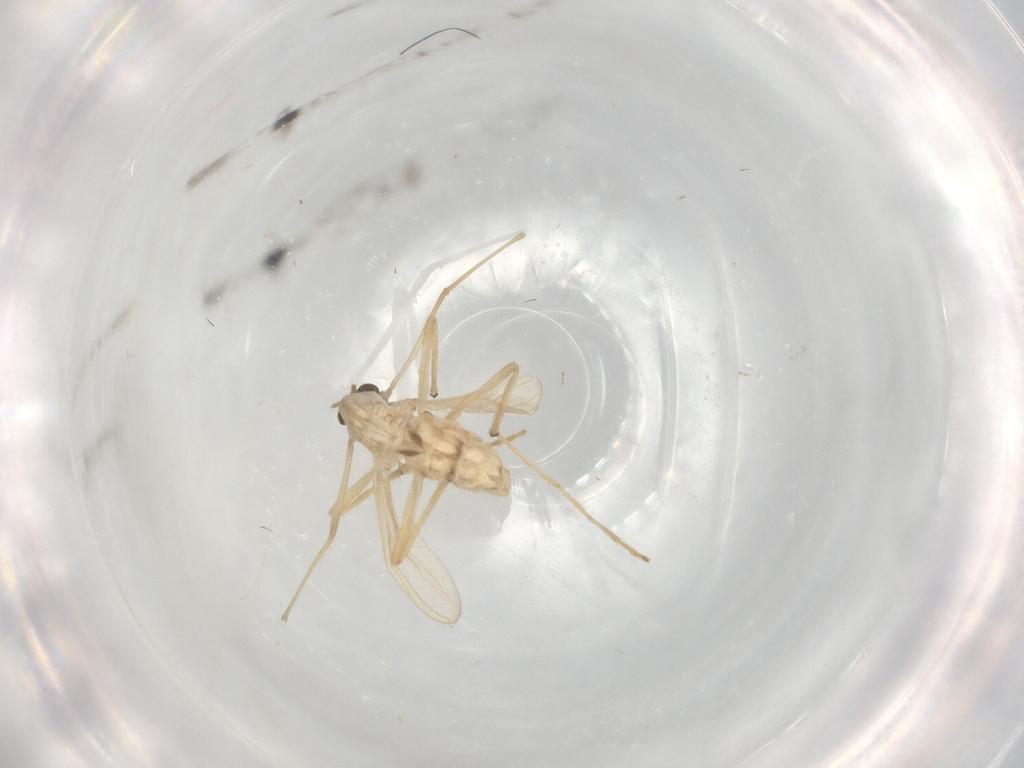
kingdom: Animalia
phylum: Arthropoda
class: Insecta
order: Diptera
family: Chironomidae
